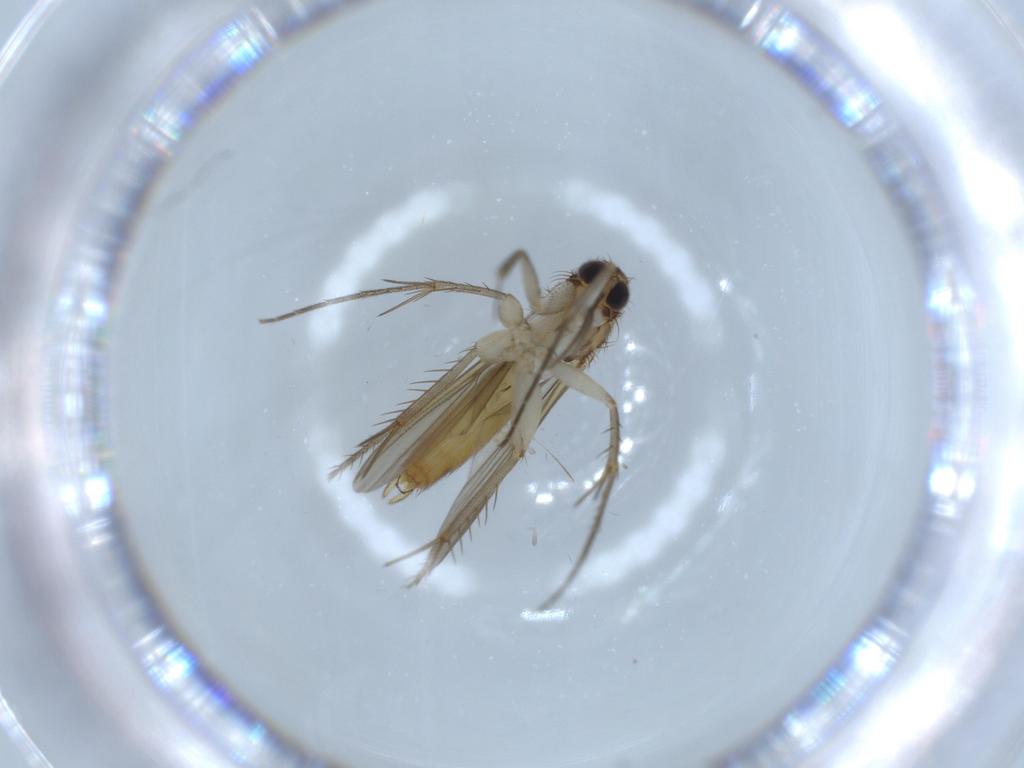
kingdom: Animalia
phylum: Arthropoda
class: Insecta
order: Diptera
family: Mycetophilidae
